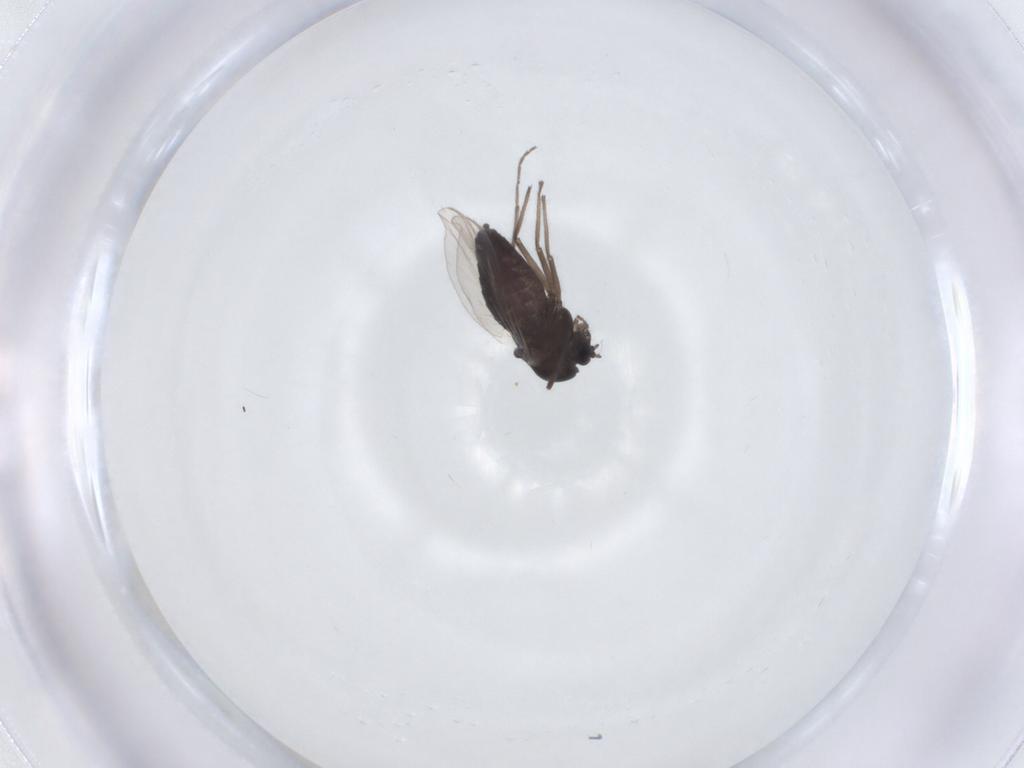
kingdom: Animalia
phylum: Arthropoda
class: Insecta
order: Diptera
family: Chironomidae
